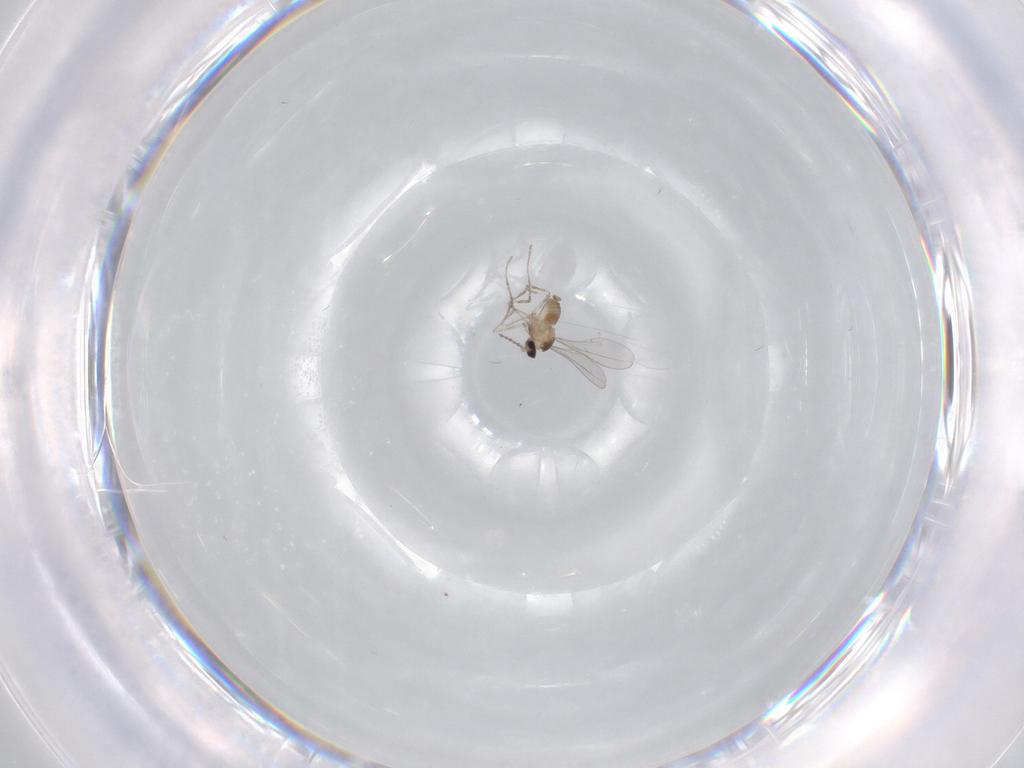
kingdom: Animalia
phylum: Arthropoda
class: Insecta
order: Diptera
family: Cecidomyiidae
